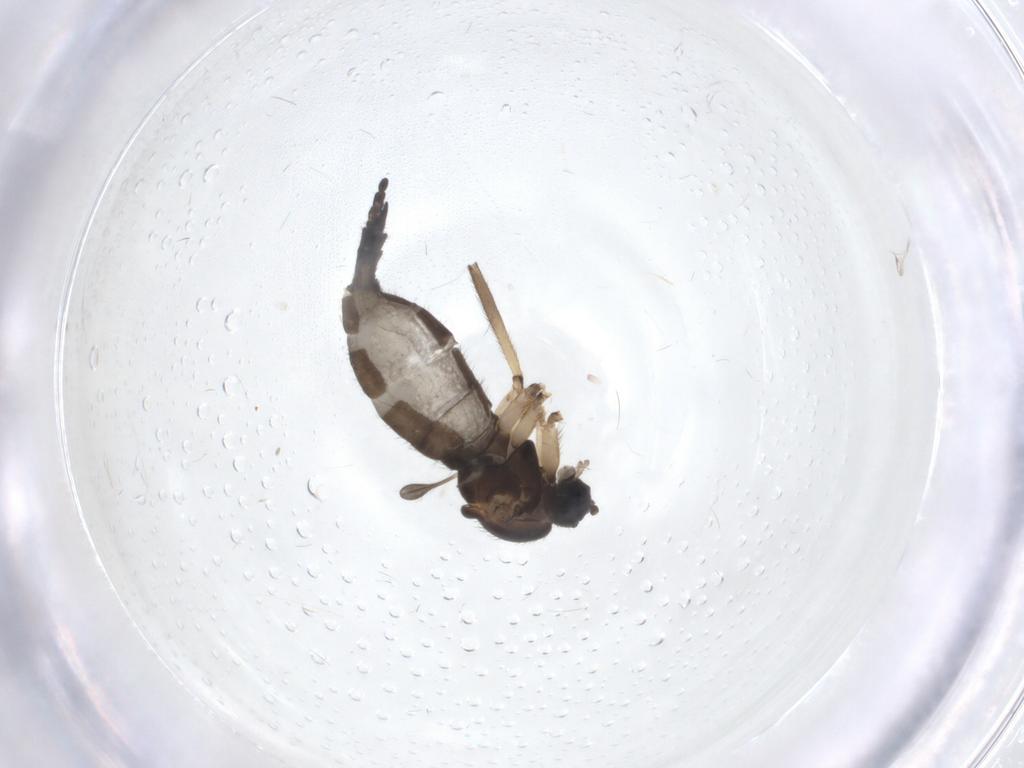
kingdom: Animalia
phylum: Arthropoda
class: Insecta
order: Diptera
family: Sciaridae
